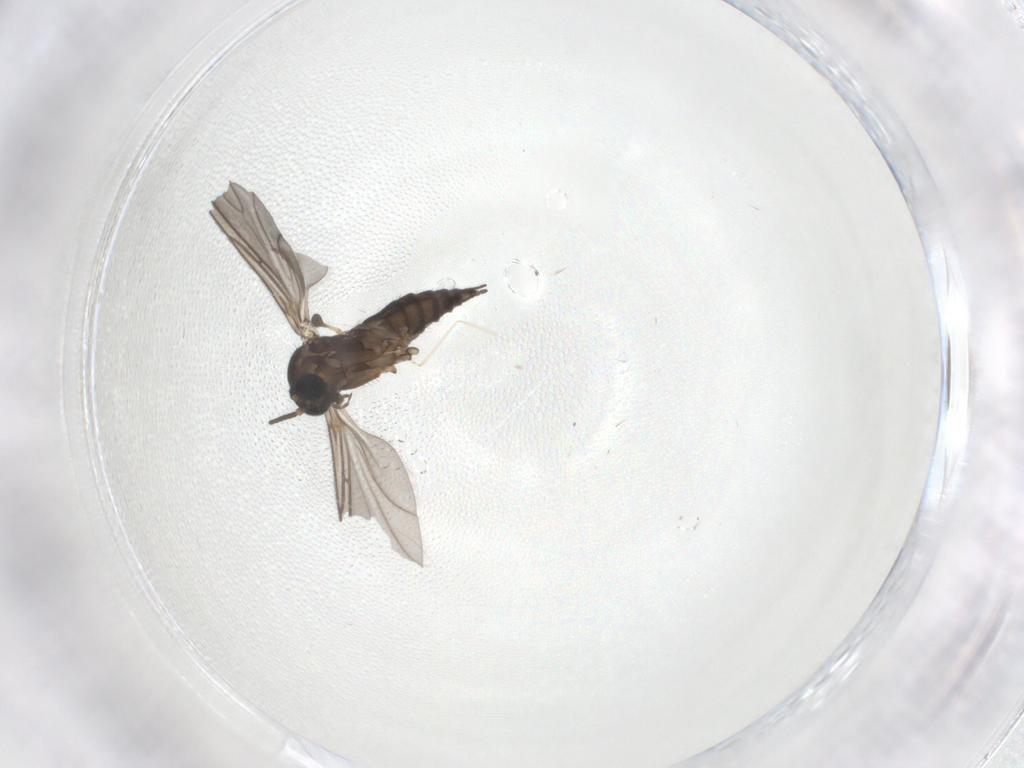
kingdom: Animalia
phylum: Arthropoda
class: Insecta
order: Diptera
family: Sciaridae
